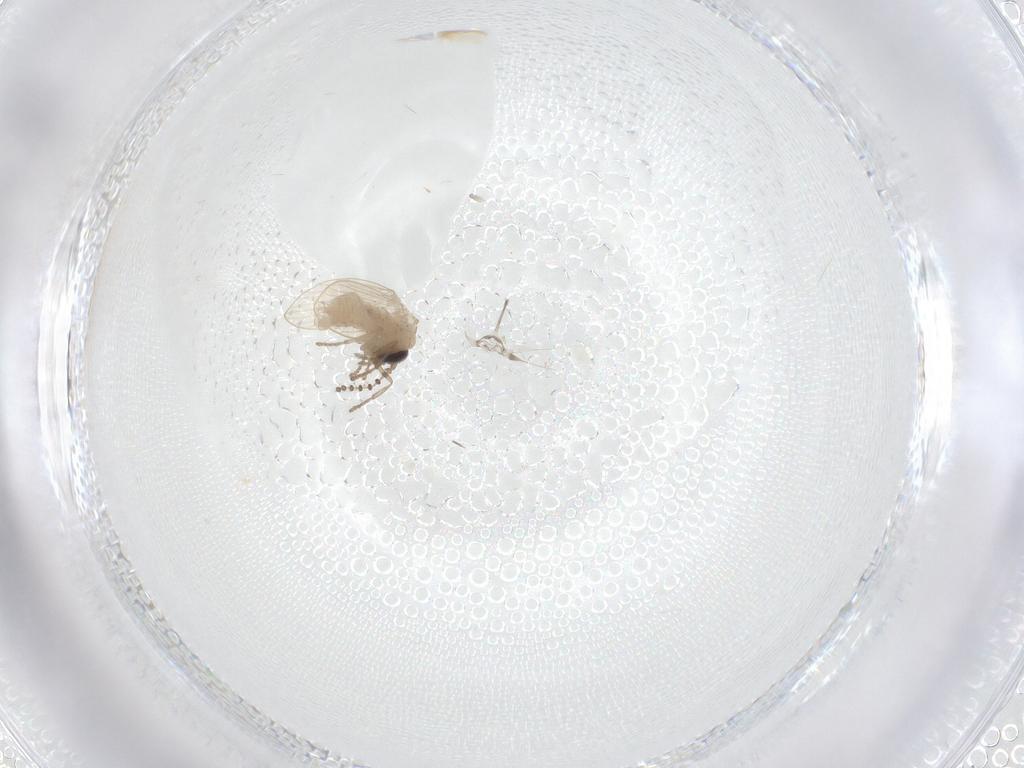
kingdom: Animalia
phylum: Arthropoda
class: Insecta
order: Diptera
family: Psychodidae
